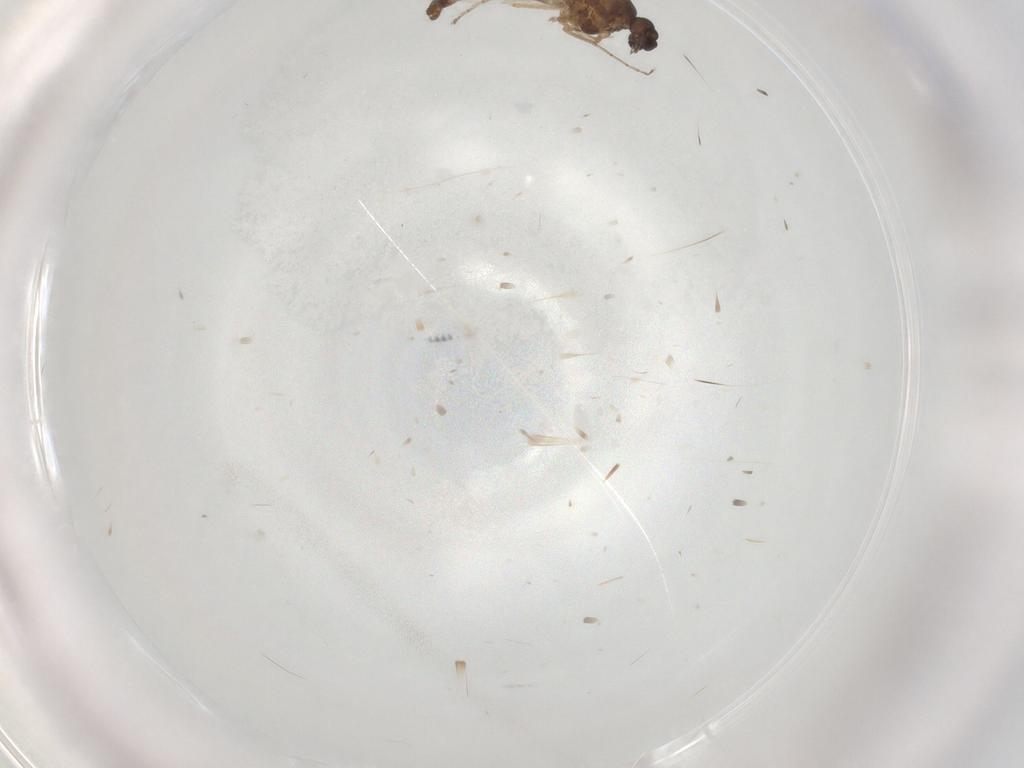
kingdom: Animalia
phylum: Arthropoda
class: Insecta
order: Diptera
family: Ceratopogonidae
